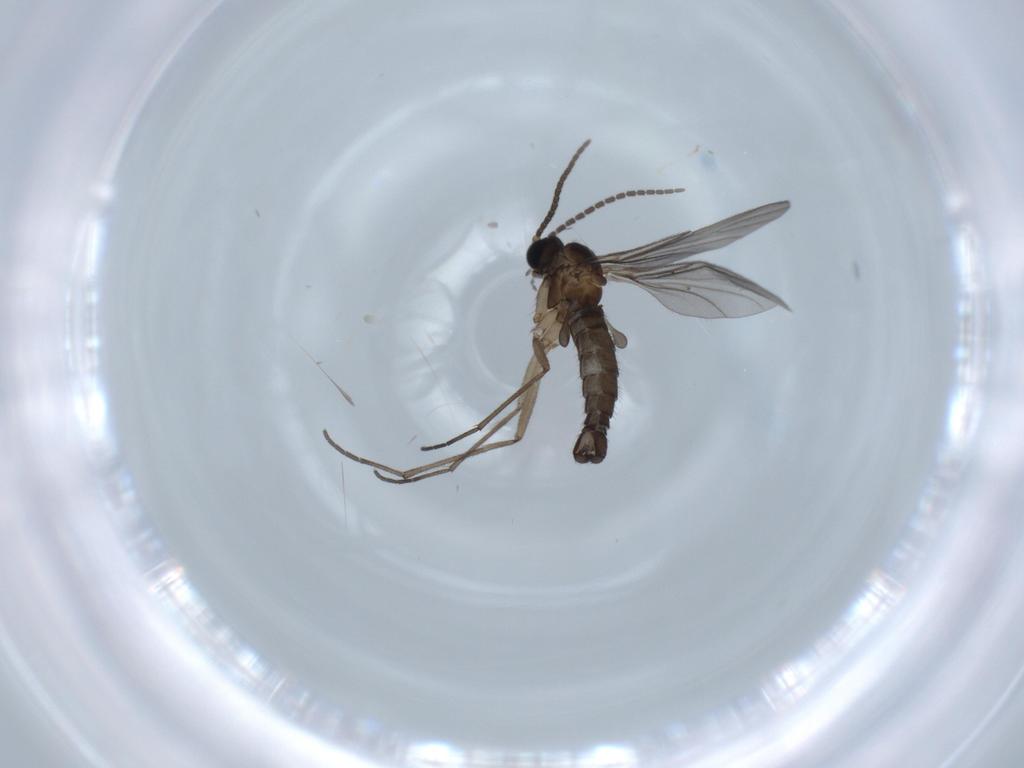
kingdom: Animalia
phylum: Arthropoda
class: Insecta
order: Diptera
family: Sciaridae
